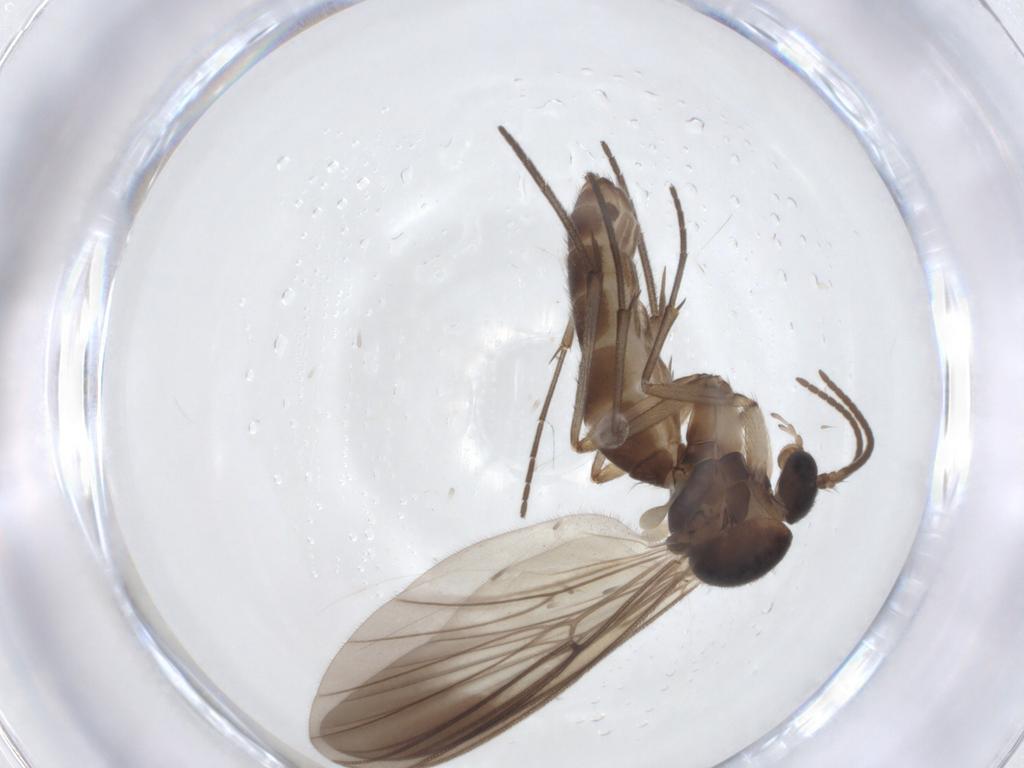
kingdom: Animalia
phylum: Arthropoda
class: Insecta
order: Diptera
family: Mycetophilidae
